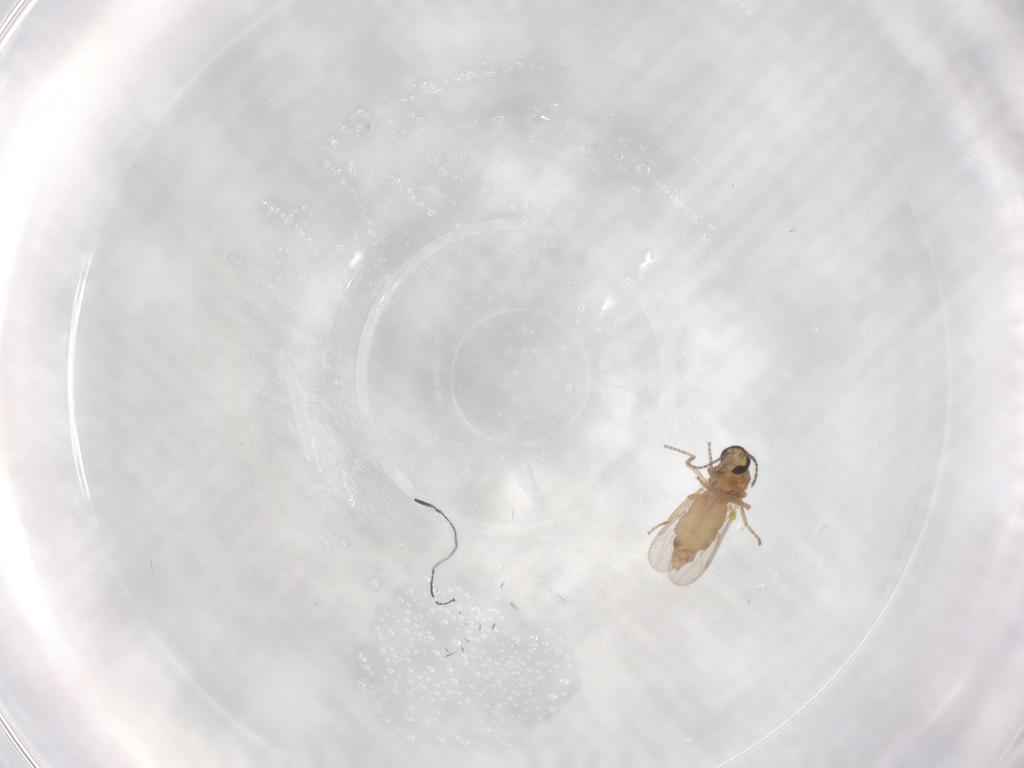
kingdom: Animalia
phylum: Arthropoda
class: Insecta
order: Diptera
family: Ceratopogonidae
